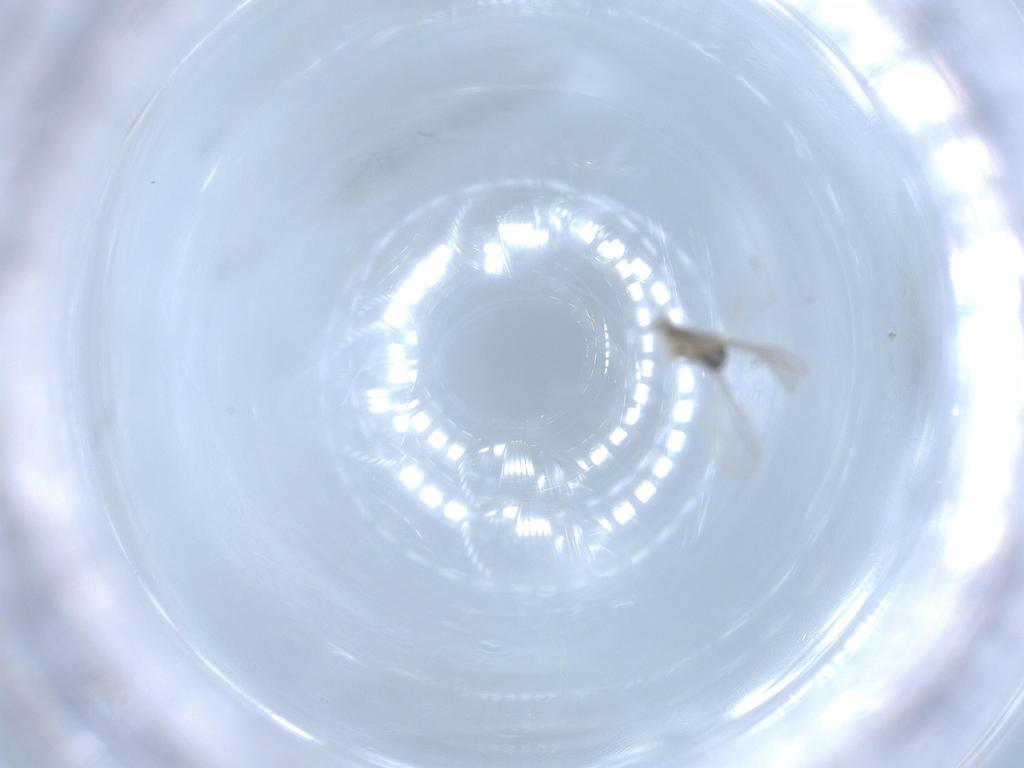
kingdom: Animalia
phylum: Arthropoda
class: Insecta
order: Diptera
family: Cecidomyiidae
